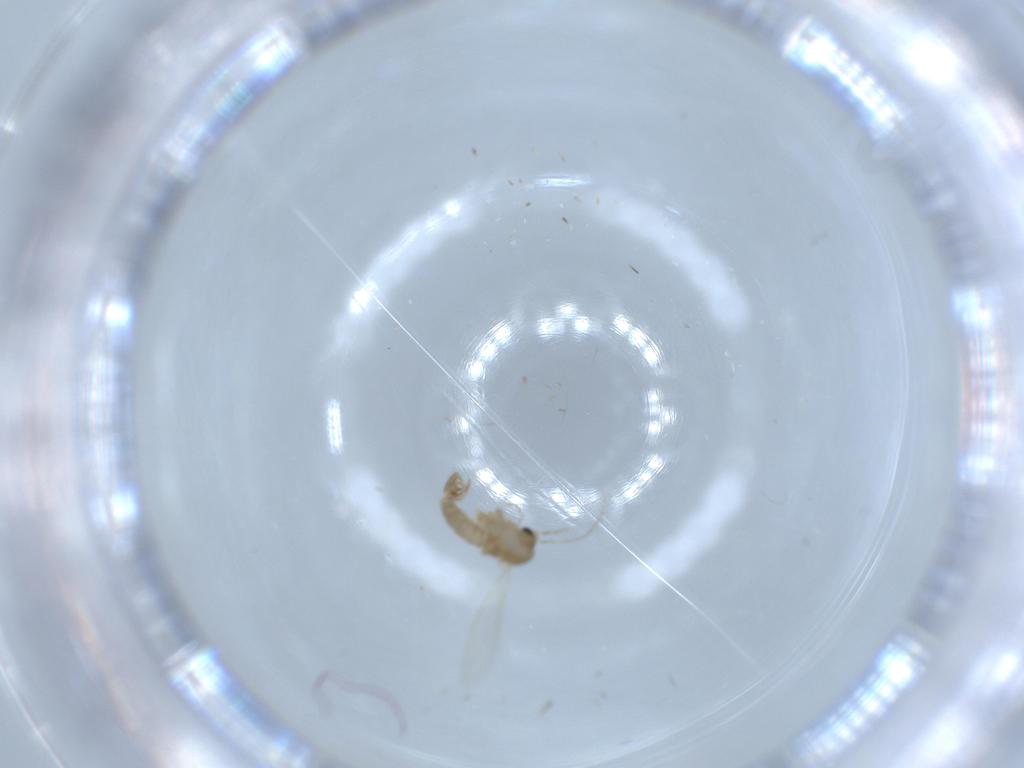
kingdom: Animalia
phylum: Arthropoda
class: Insecta
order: Diptera
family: Psychodidae
